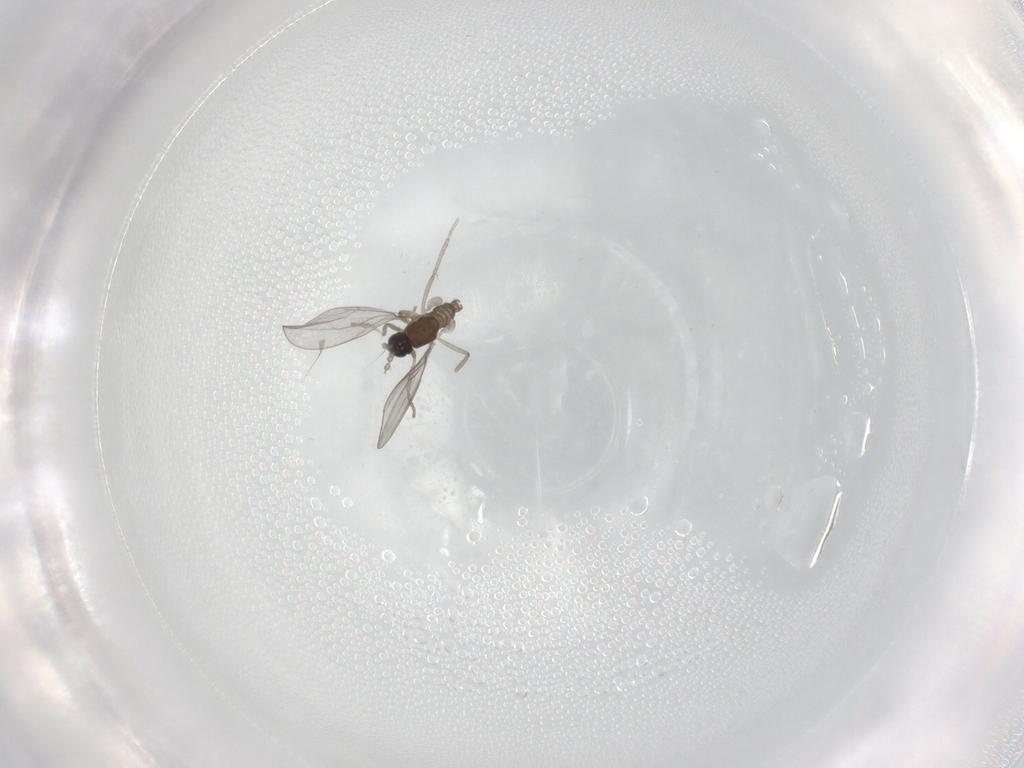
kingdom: Animalia
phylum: Arthropoda
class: Insecta
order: Diptera
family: Cecidomyiidae
